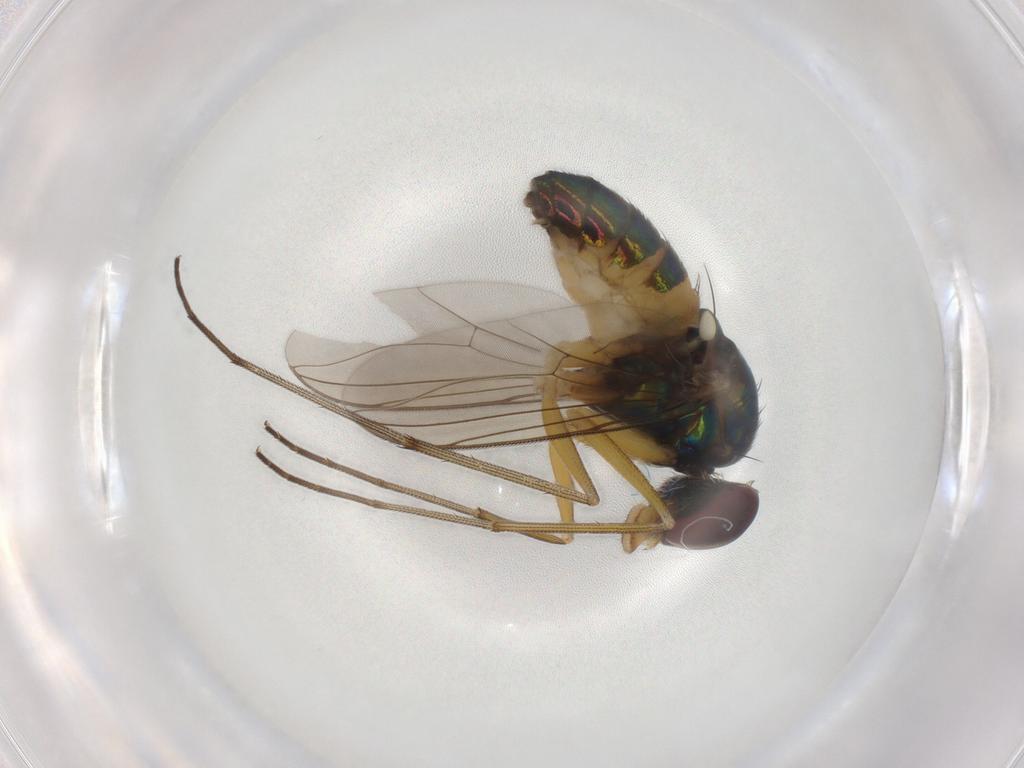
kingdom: Animalia
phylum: Arthropoda
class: Insecta
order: Diptera
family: Dolichopodidae
